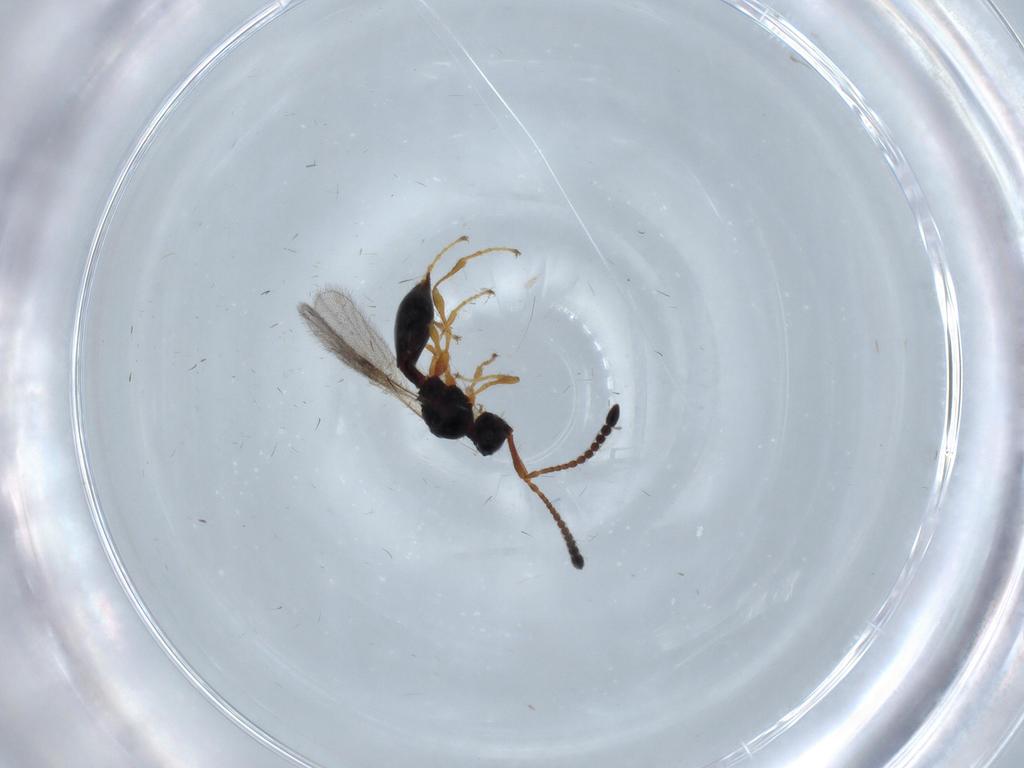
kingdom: Animalia
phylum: Arthropoda
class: Insecta
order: Hymenoptera
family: Diapriidae
